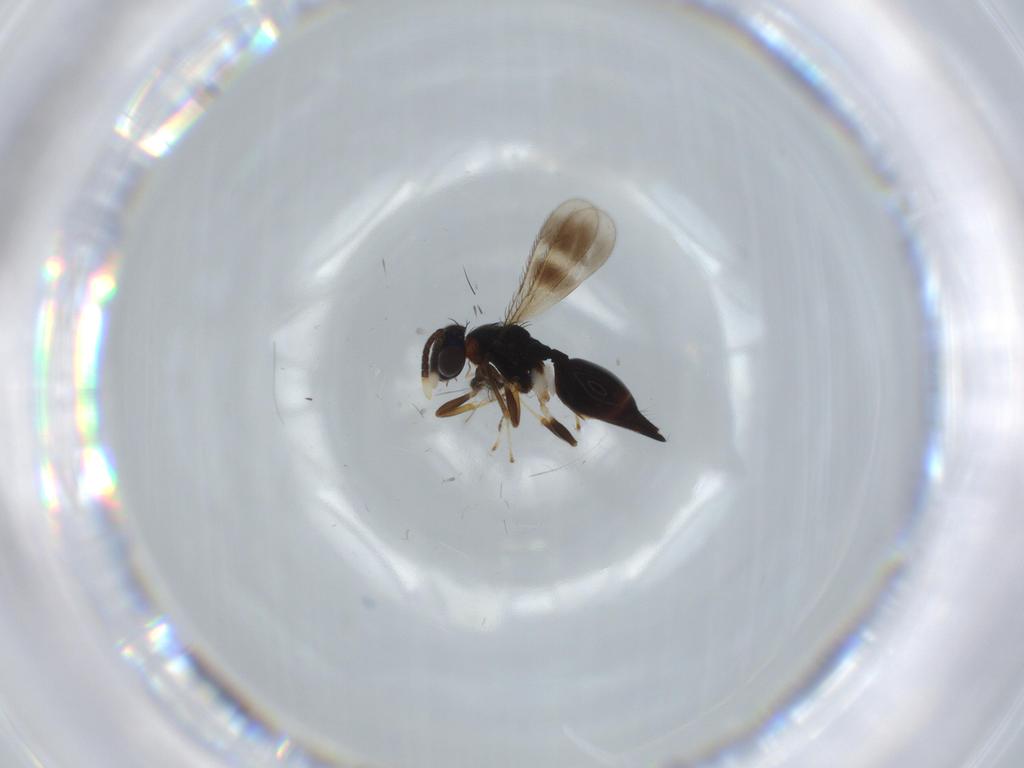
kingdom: Animalia
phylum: Arthropoda
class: Insecta
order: Hymenoptera
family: Diparidae
